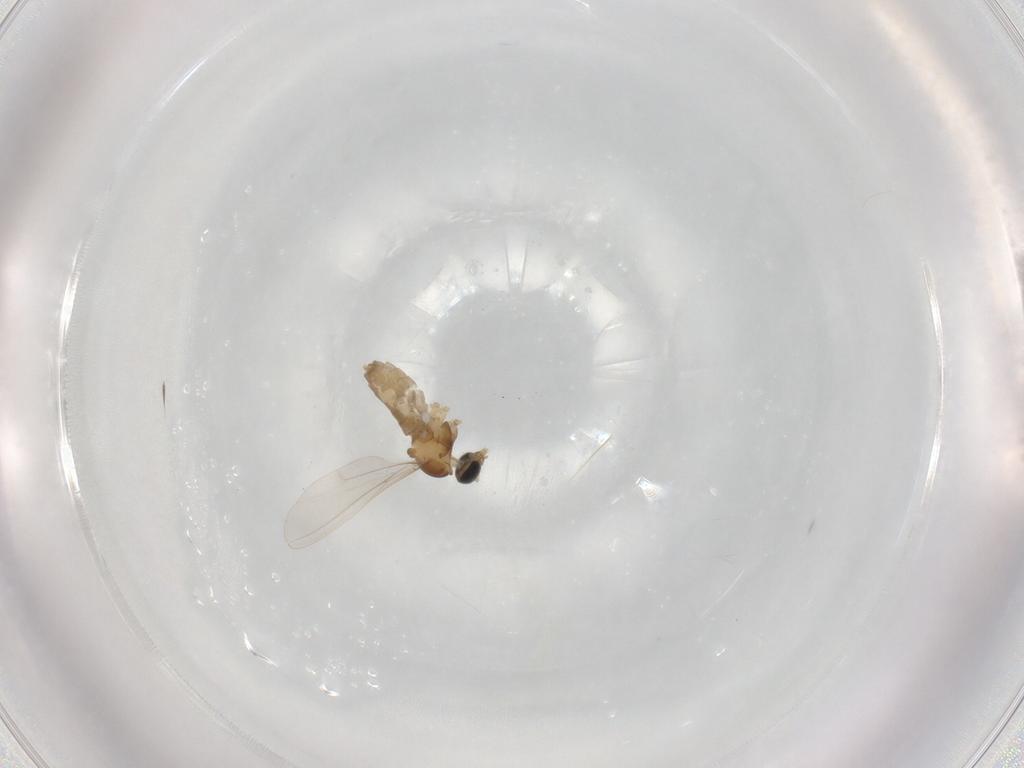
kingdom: Animalia
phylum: Arthropoda
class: Insecta
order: Diptera
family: Cecidomyiidae
